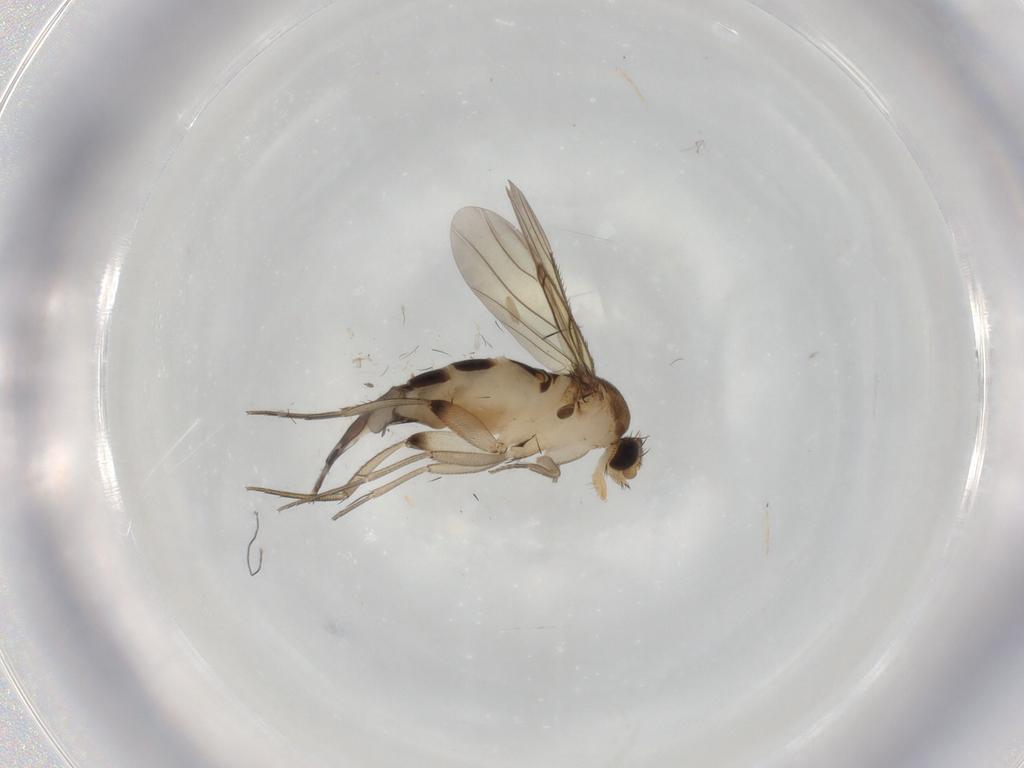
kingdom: Animalia
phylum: Arthropoda
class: Insecta
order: Diptera
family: Phoridae
